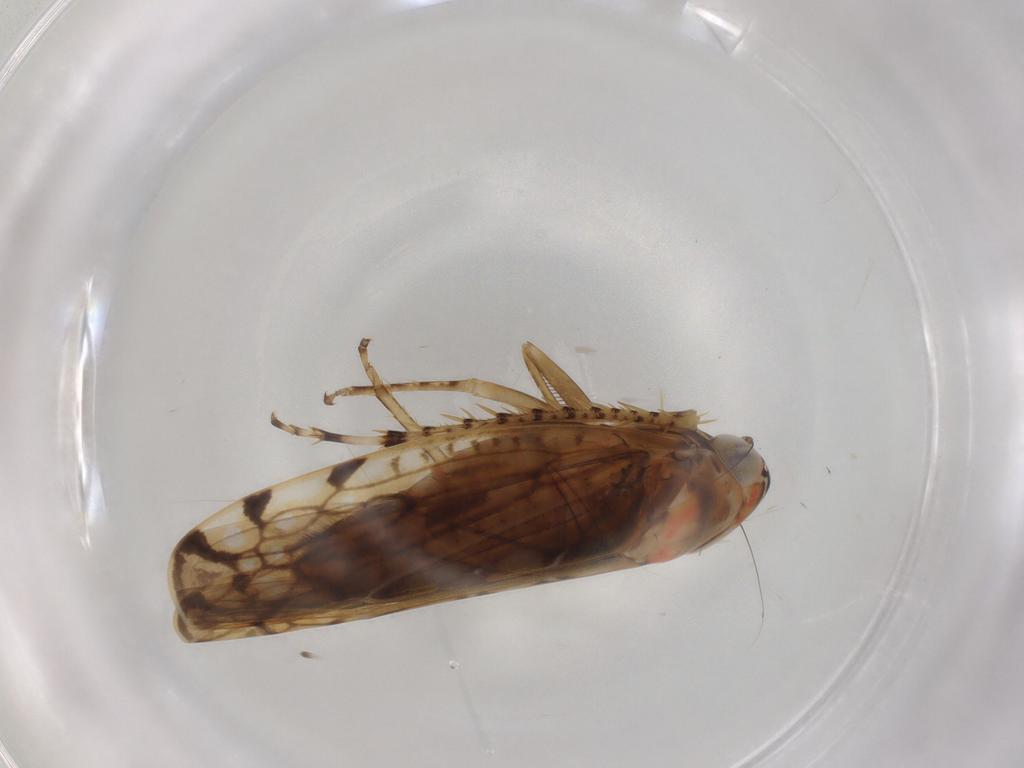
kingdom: Animalia
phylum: Arthropoda
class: Insecta
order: Hemiptera
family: Cicadellidae
